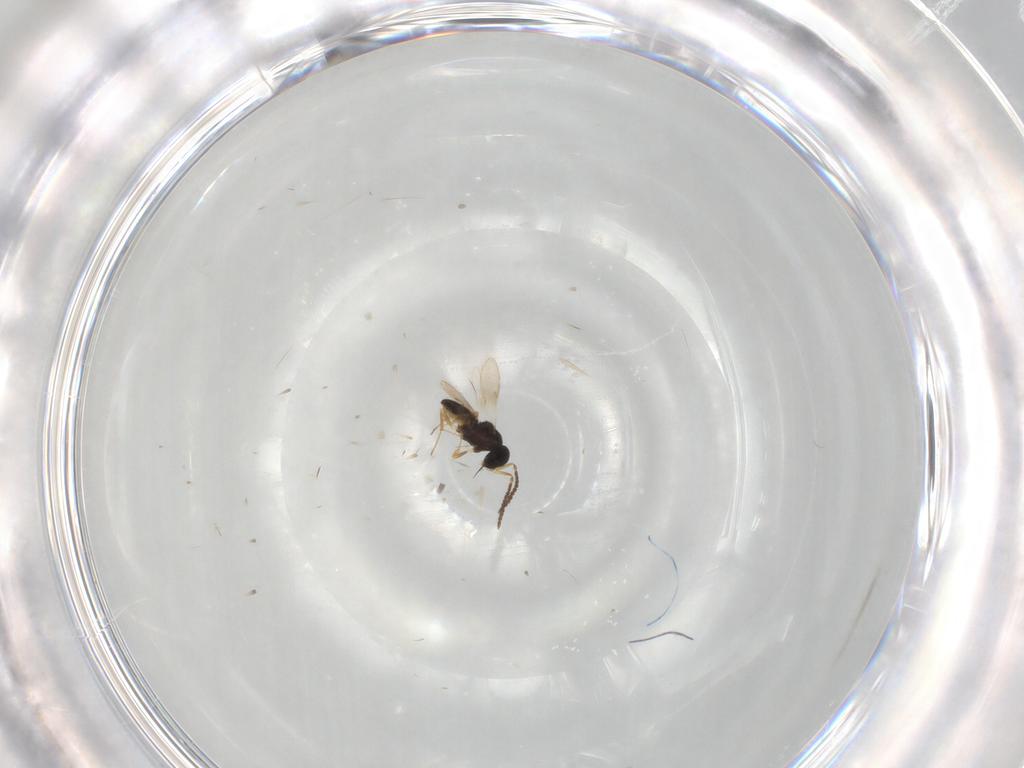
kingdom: Animalia
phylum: Arthropoda
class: Insecta
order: Hymenoptera
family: Scelionidae
